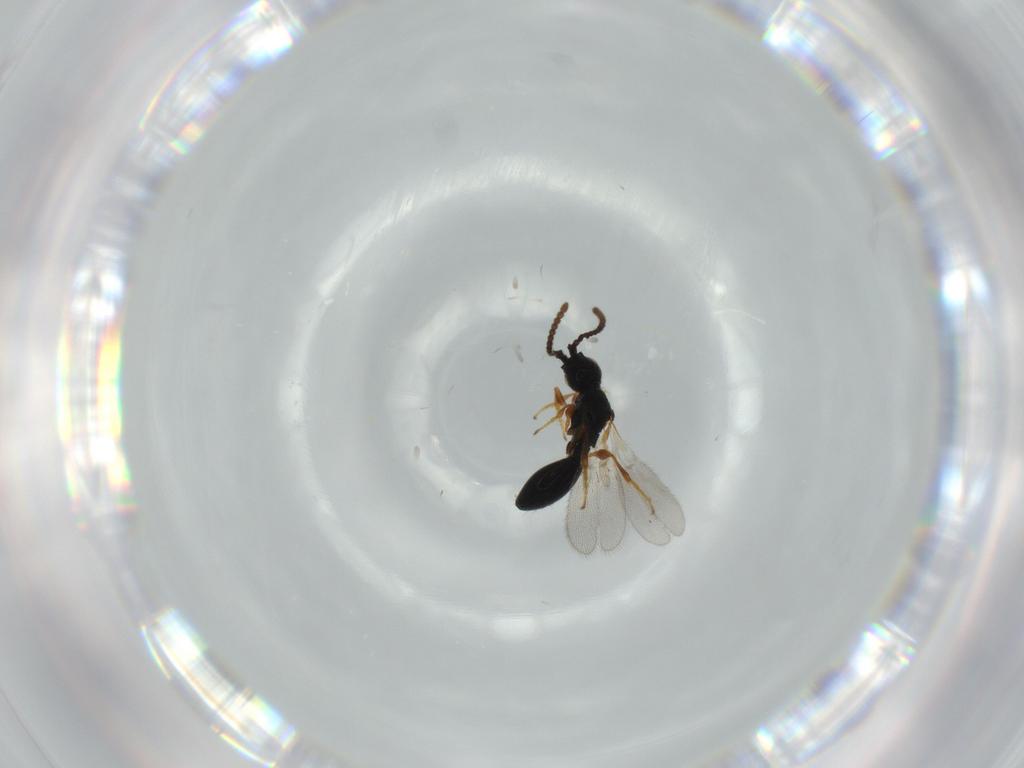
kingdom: Animalia
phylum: Arthropoda
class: Insecta
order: Hymenoptera
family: Diapriidae
